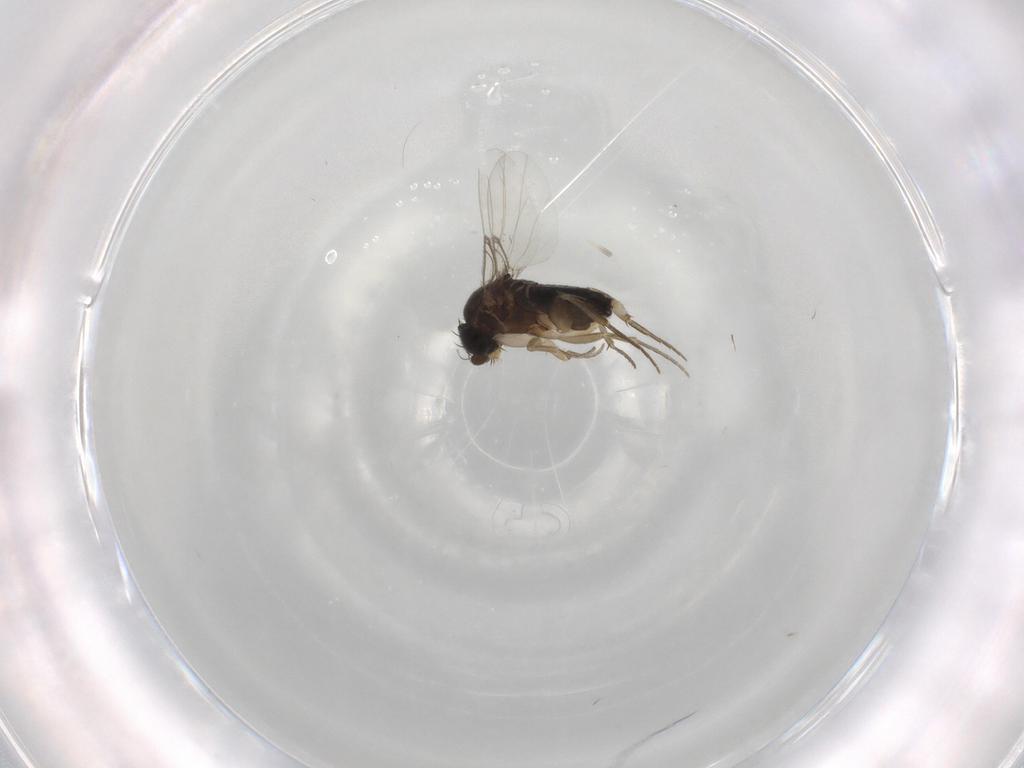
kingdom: Animalia
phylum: Arthropoda
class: Insecta
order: Diptera
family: Phoridae
